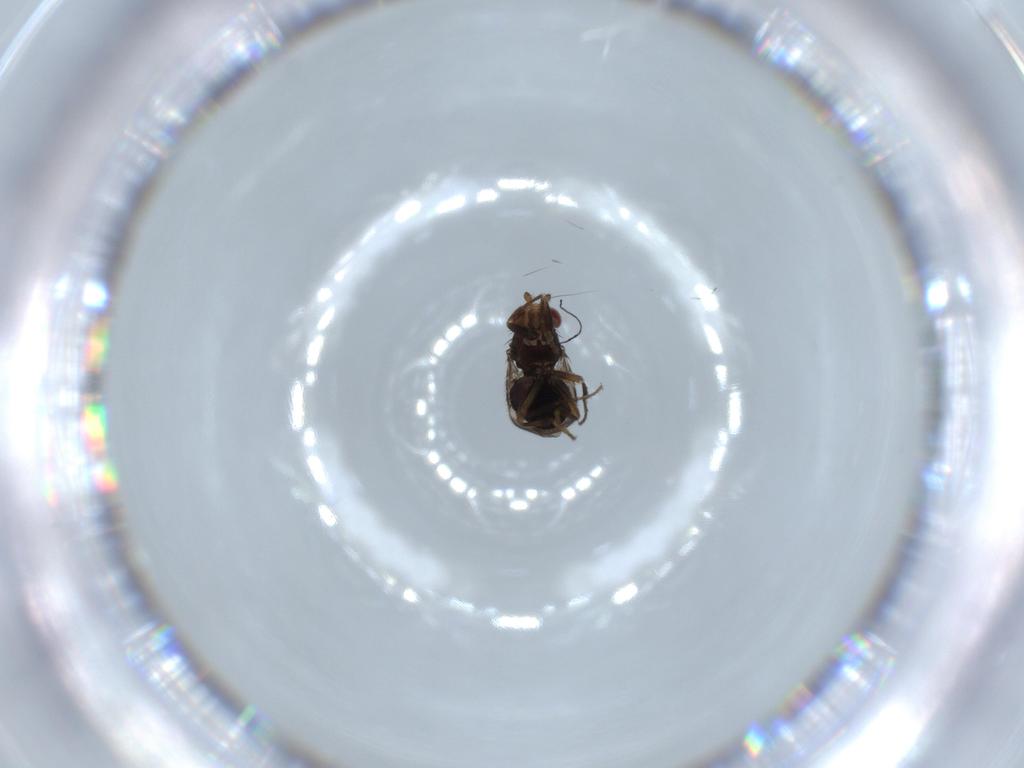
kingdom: Animalia
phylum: Arthropoda
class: Insecta
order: Diptera
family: Sphaeroceridae
